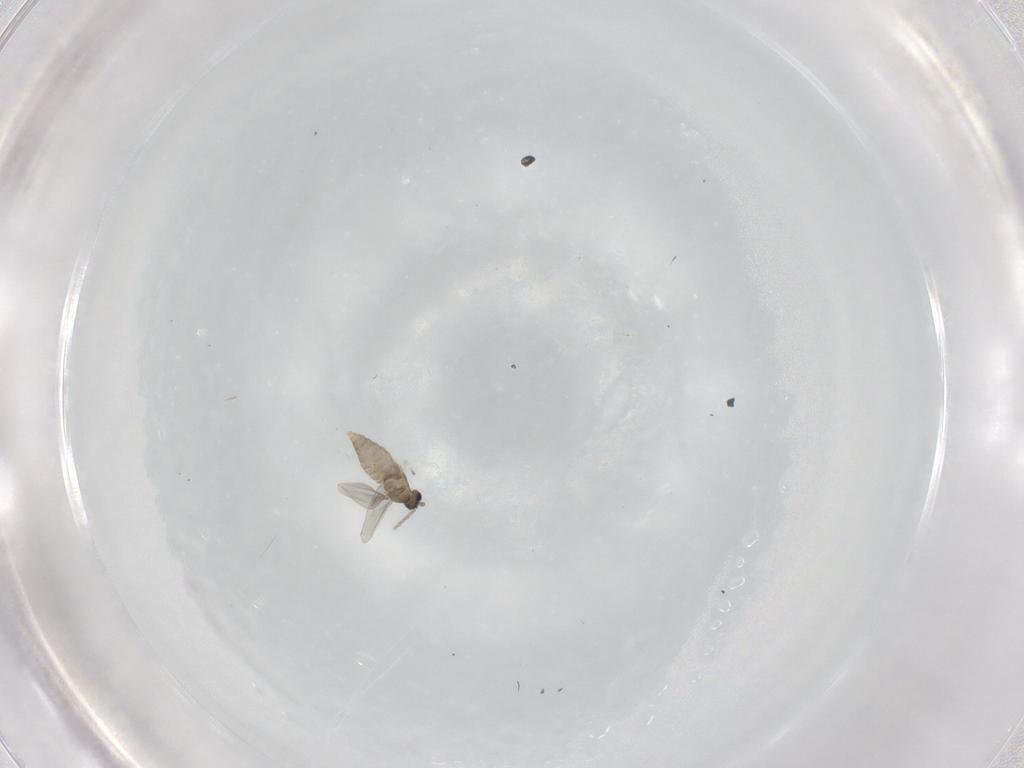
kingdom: Animalia
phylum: Arthropoda
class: Insecta
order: Diptera
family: Cecidomyiidae
